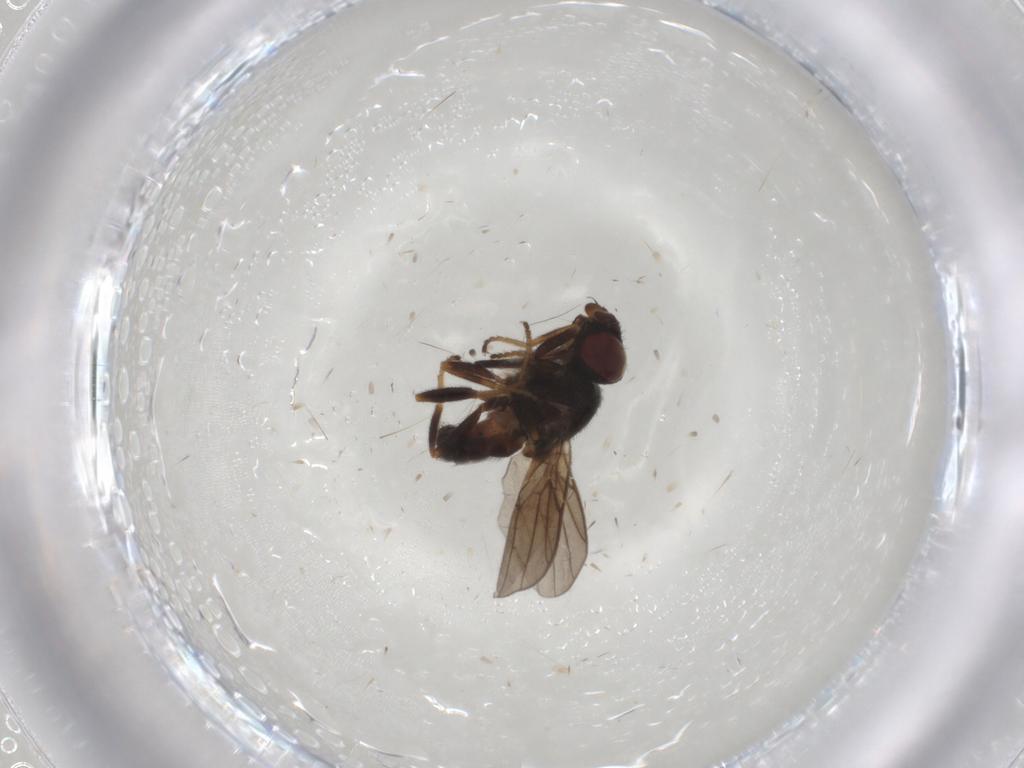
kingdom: Animalia
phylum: Arthropoda
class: Insecta
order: Diptera
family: Chloropidae
